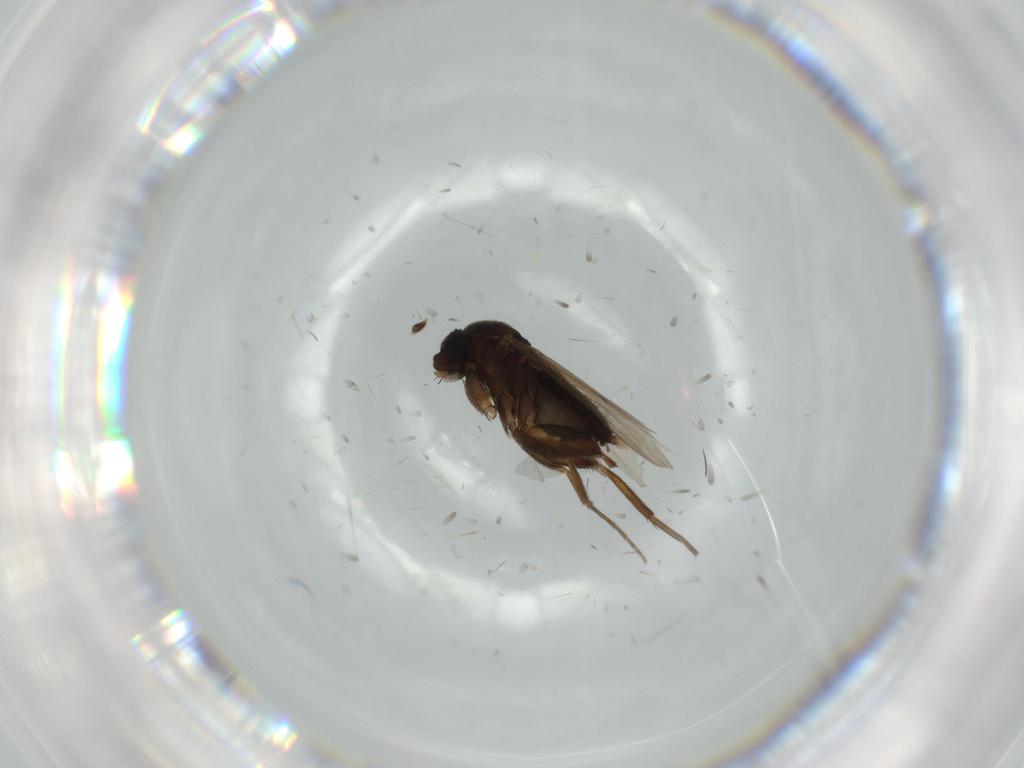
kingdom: Animalia
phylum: Arthropoda
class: Insecta
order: Diptera
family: Phoridae
